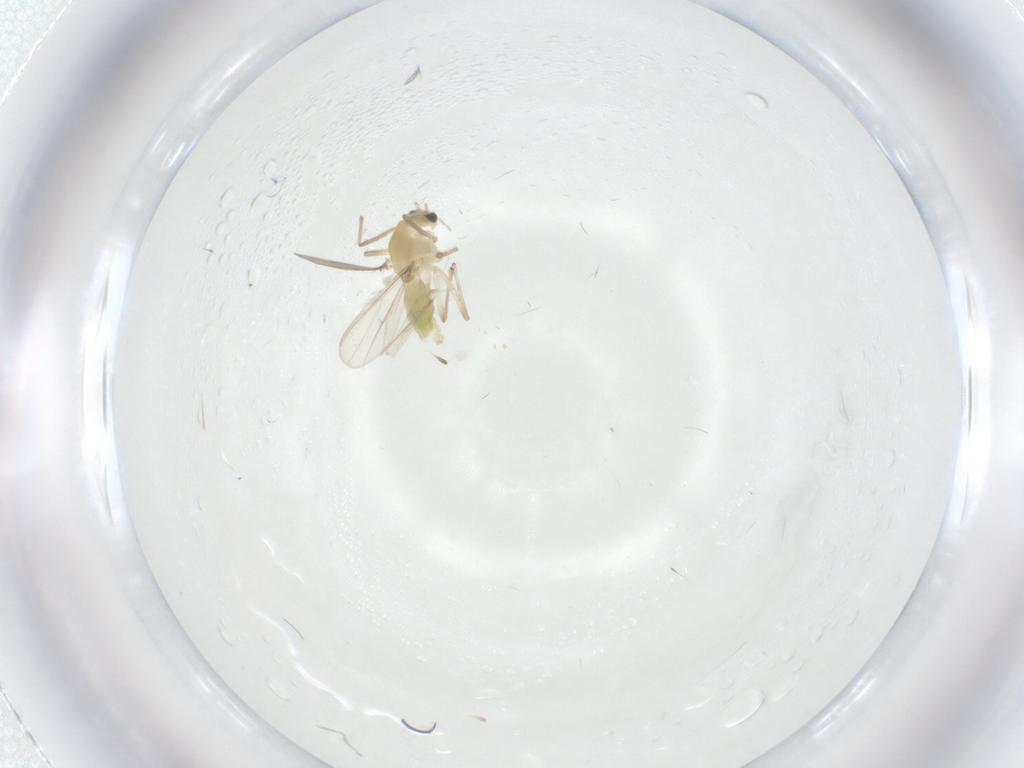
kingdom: Animalia
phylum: Arthropoda
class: Insecta
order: Diptera
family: Chironomidae
